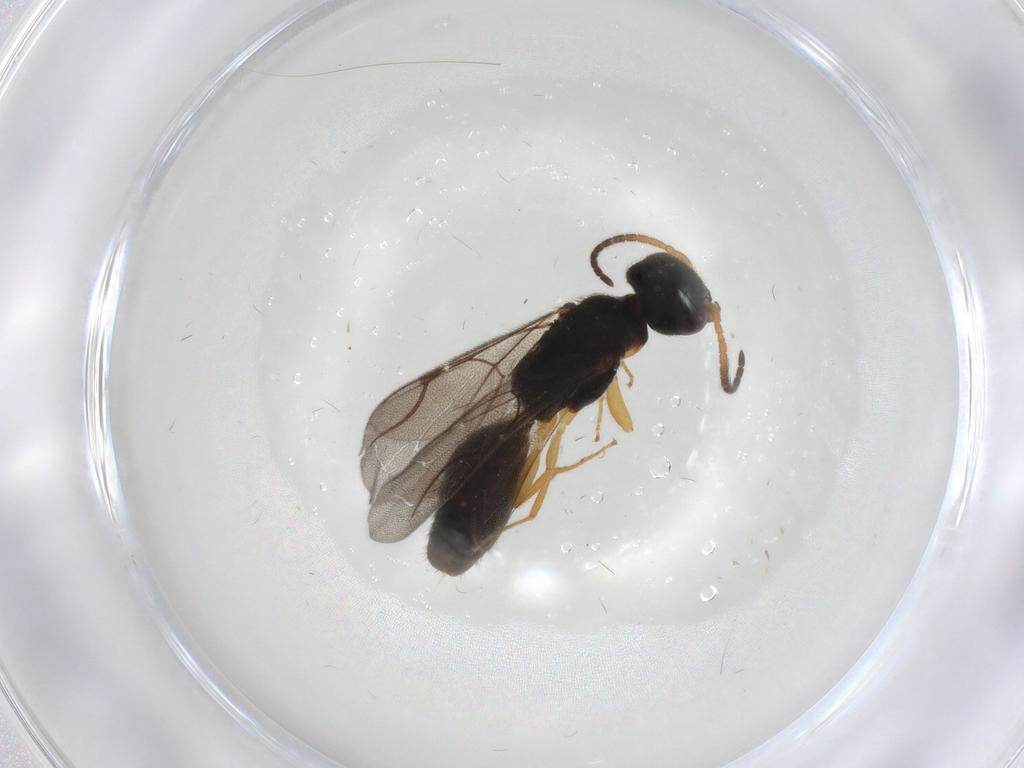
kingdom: Animalia
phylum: Arthropoda
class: Insecta
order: Hymenoptera
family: Bethylidae
